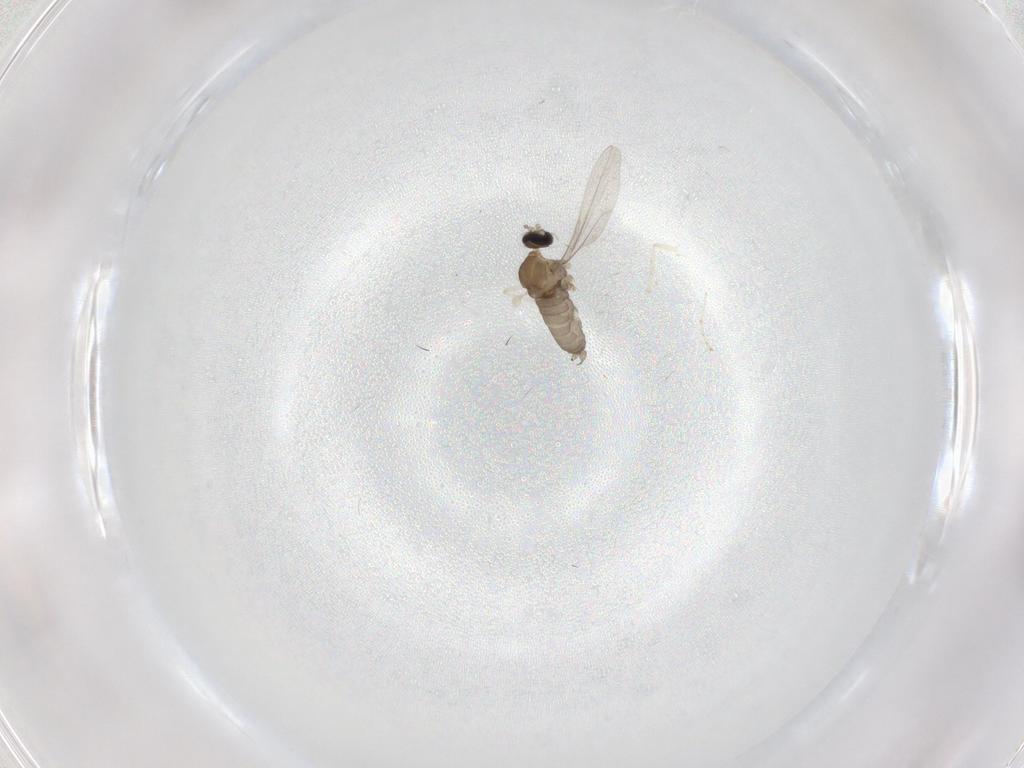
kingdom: Animalia
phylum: Arthropoda
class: Insecta
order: Diptera
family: Cecidomyiidae
